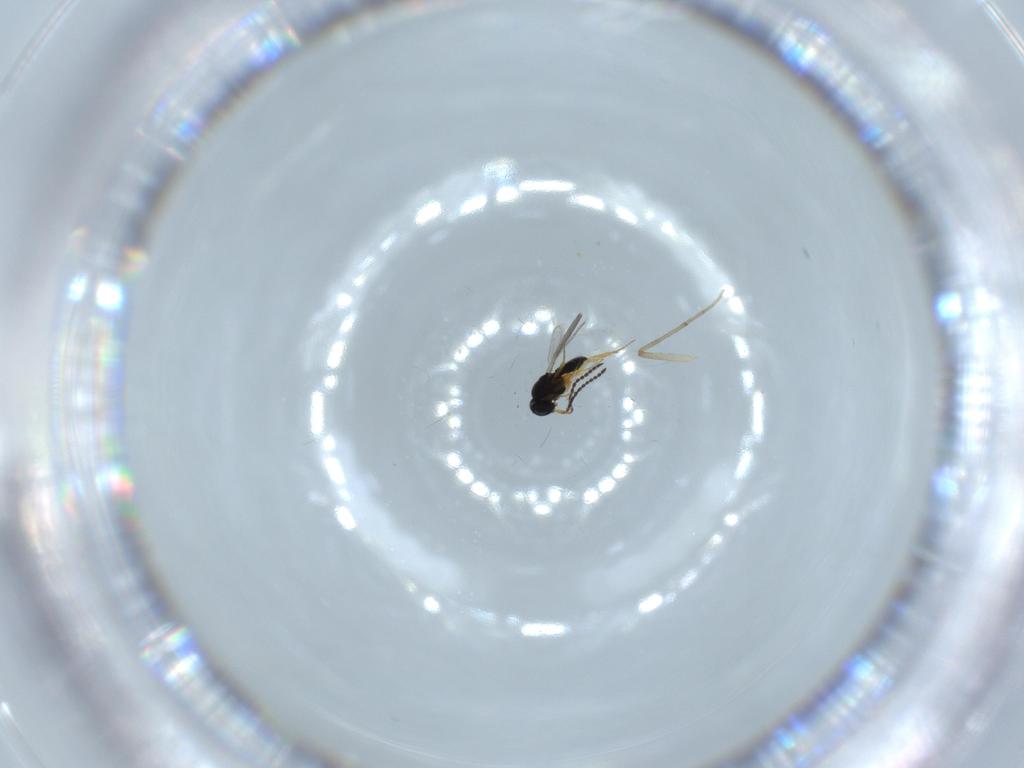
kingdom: Animalia
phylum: Arthropoda
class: Insecta
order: Diptera
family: Chironomidae
